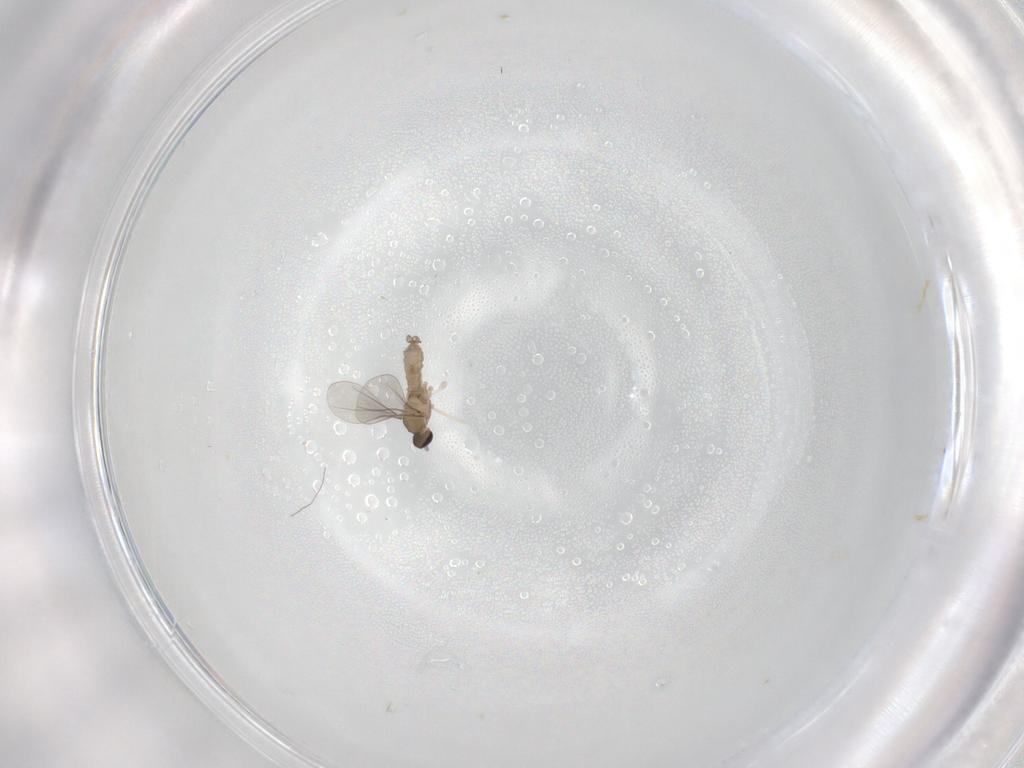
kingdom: Animalia
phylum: Arthropoda
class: Insecta
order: Diptera
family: Cecidomyiidae
